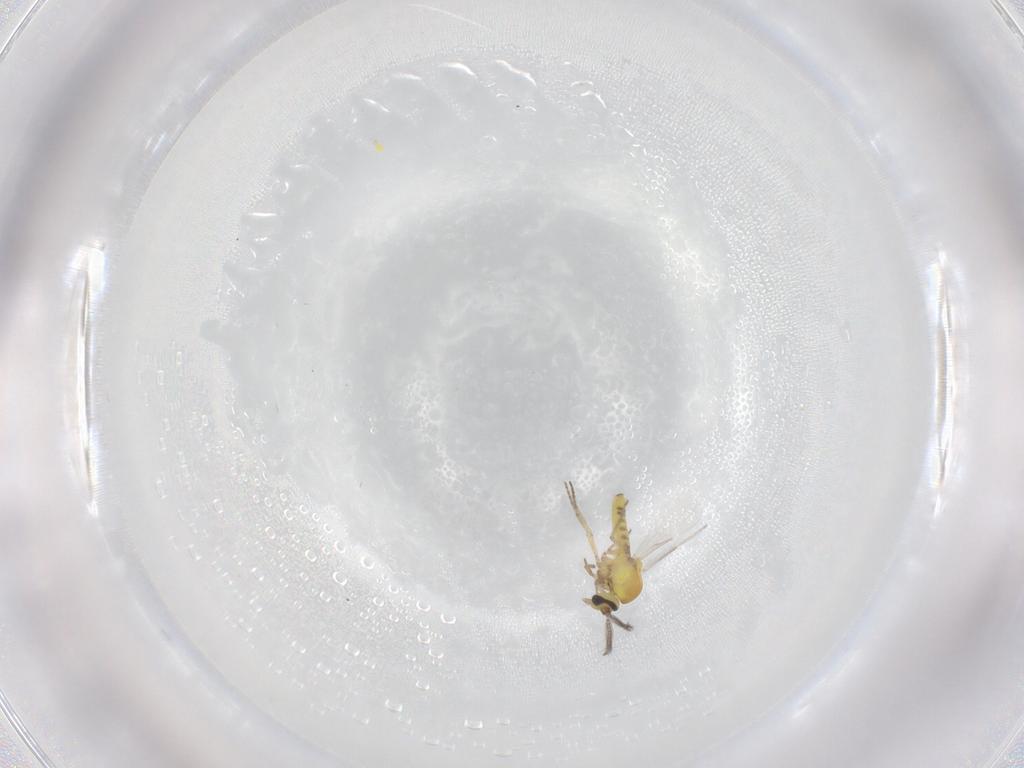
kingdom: Animalia
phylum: Arthropoda
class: Insecta
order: Diptera
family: Ceratopogonidae
